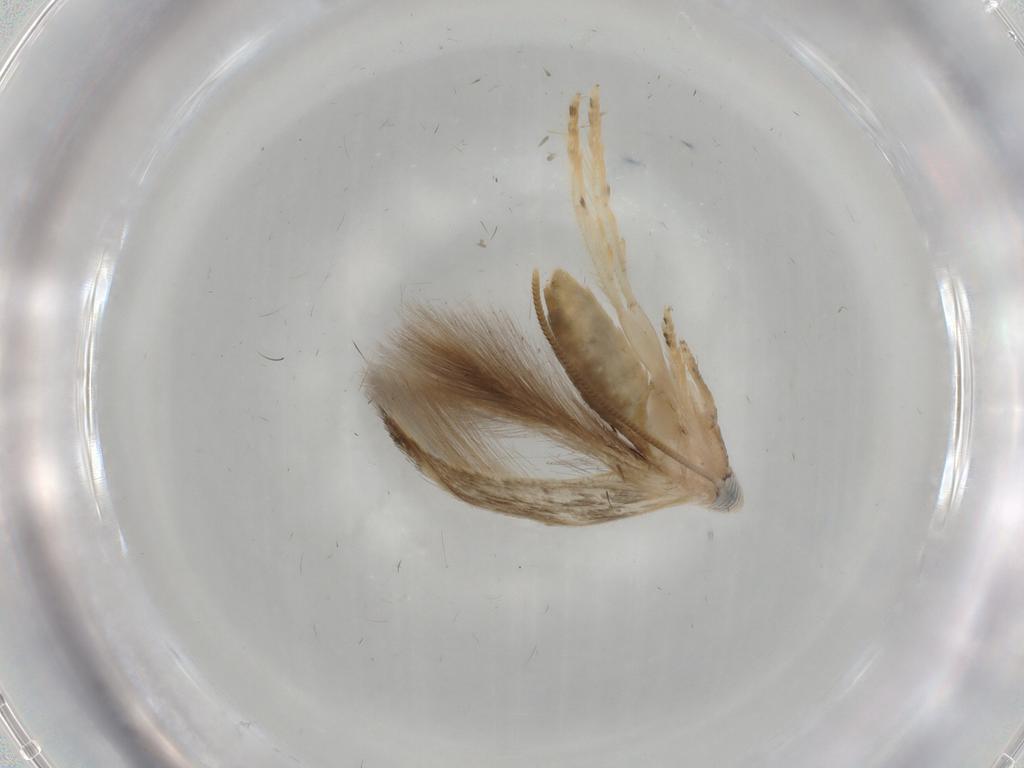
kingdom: Animalia
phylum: Arthropoda
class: Insecta
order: Lepidoptera
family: Opostegidae
